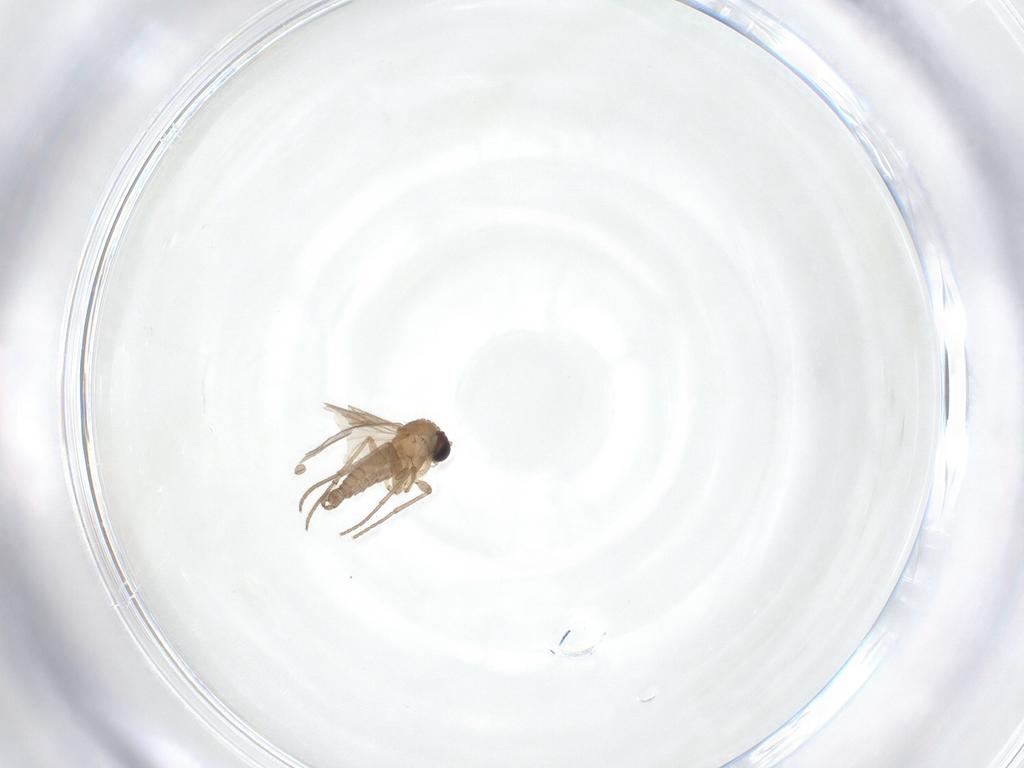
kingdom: Animalia
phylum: Arthropoda
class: Insecta
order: Diptera
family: Sciaridae
